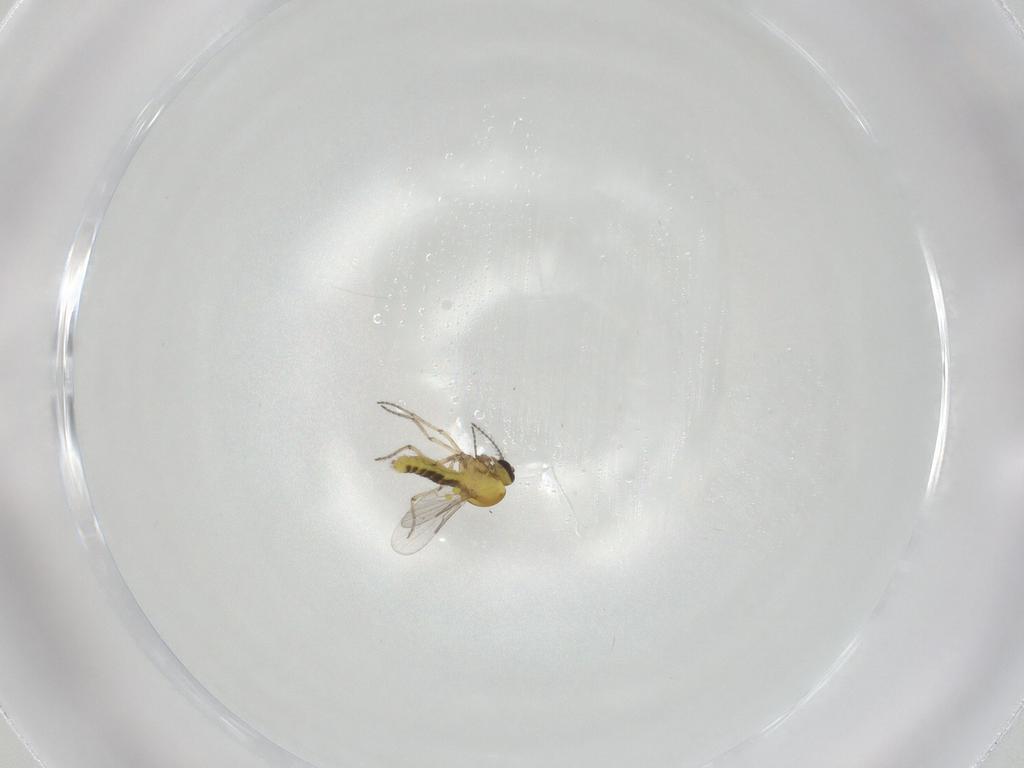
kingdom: Animalia
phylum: Arthropoda
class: Insecta
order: Diptera
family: Ceratopogonidae
